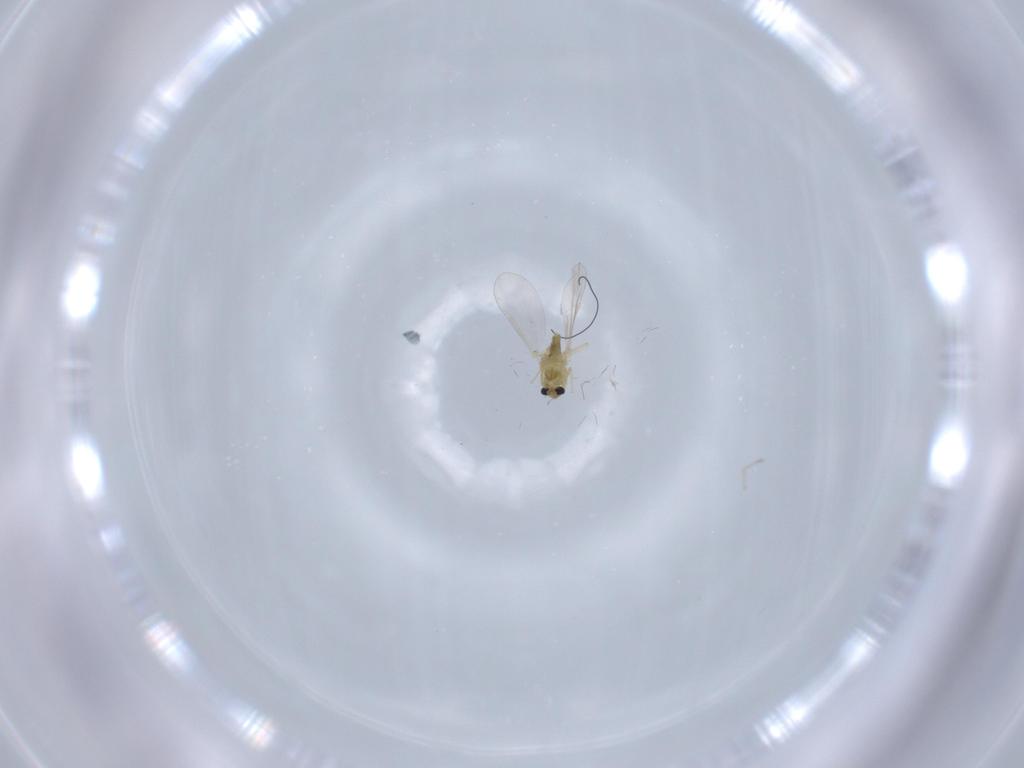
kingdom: Animalia
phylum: Arthropoda
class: Insecta
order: Diptera
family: Chironomidae
